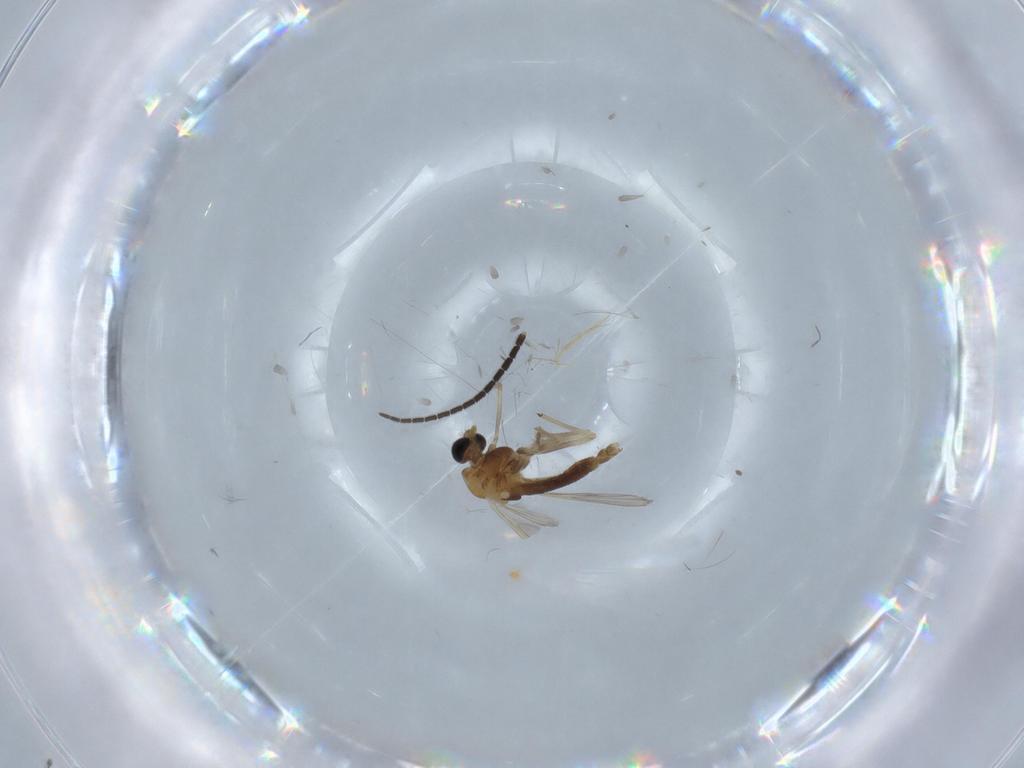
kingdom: Animalia
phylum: Arthropoda
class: Insecta
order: Diptera
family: Chironomidae
